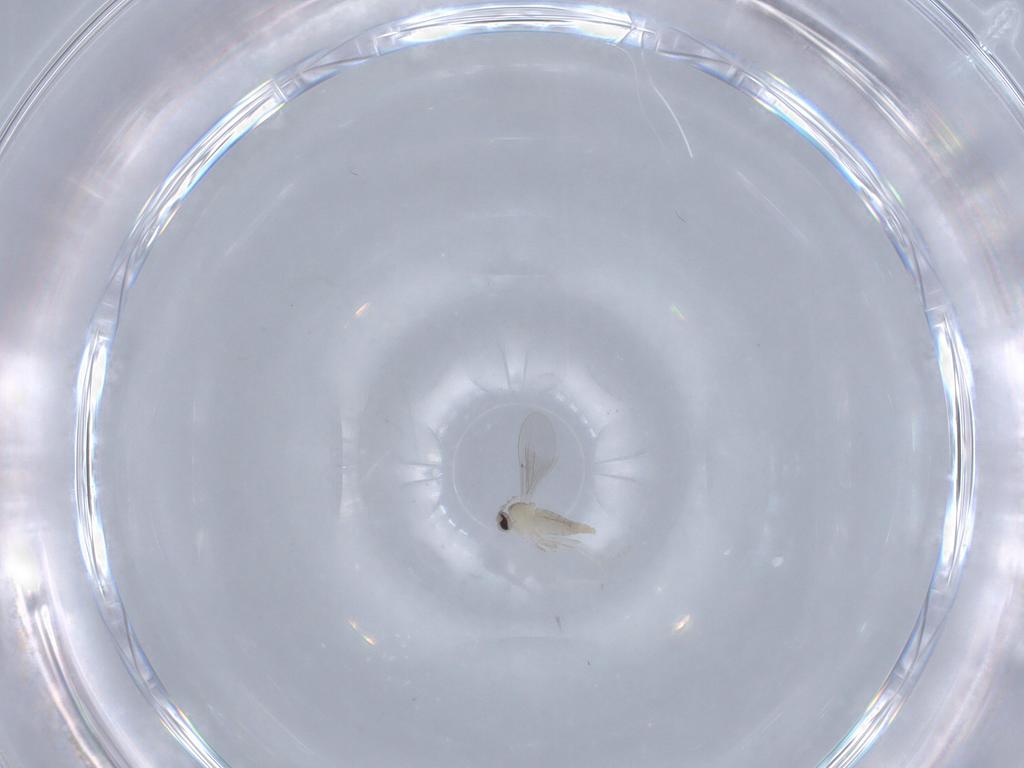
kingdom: Animalia
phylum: Arthropoda
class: Insecta
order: Diptera
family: Cecidomyiidae
